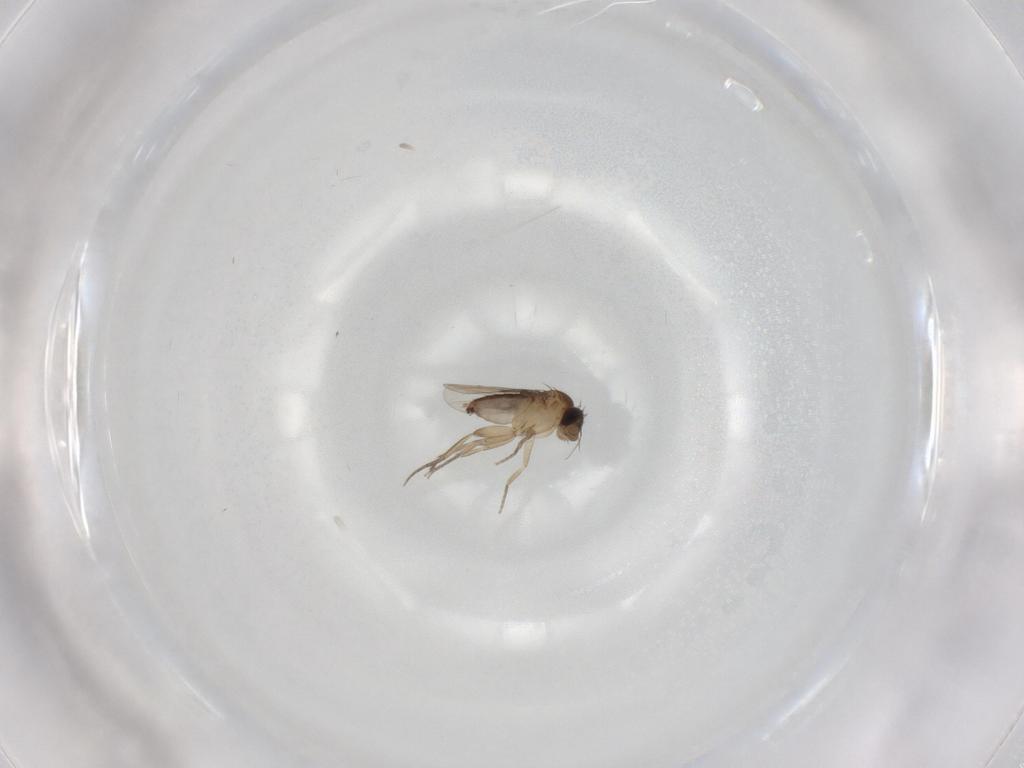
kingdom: Animalia
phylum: Arthropoda
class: Insecta
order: Diptera
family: Phoridae
